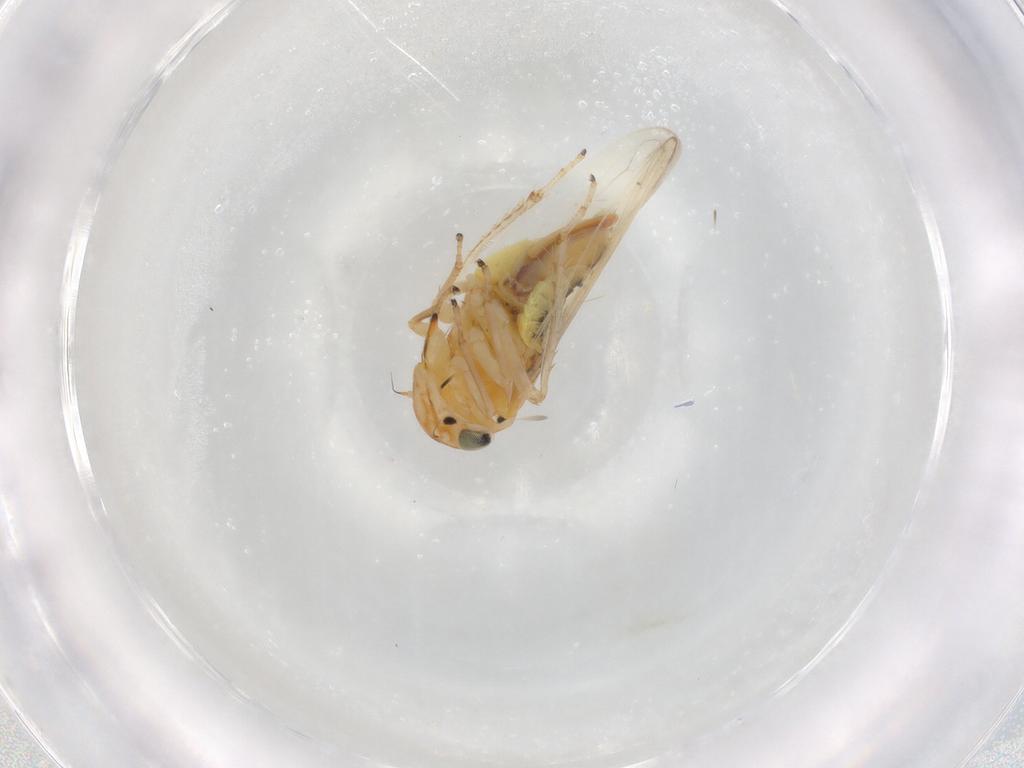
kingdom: Animalia
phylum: Arthropoda
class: Insecta
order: Hemiptera
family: Cicadellidae
